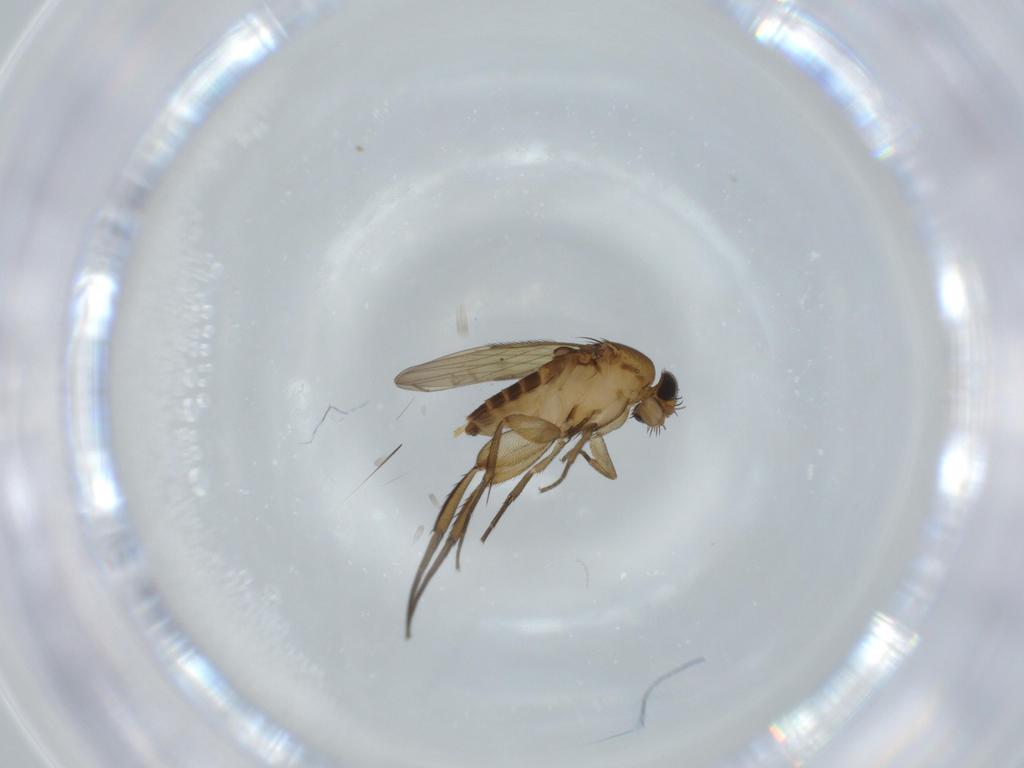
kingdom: Animalia
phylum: Arthropoda
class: Insecta
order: Diptera
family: Phoridae
